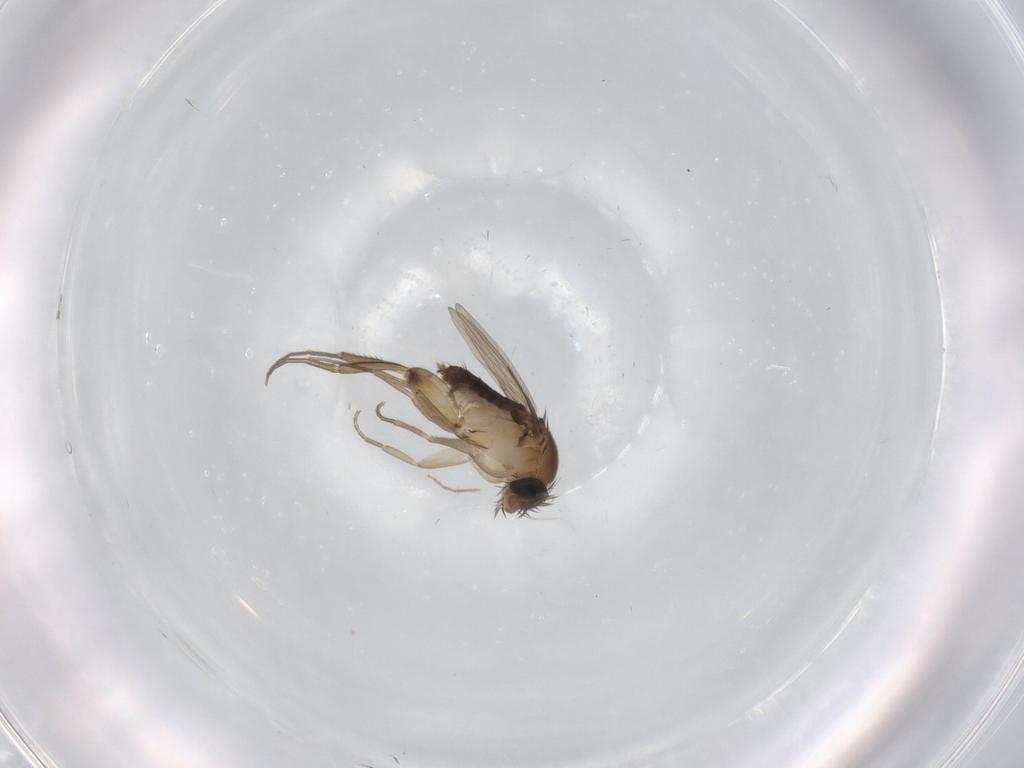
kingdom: Animalia
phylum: Arthropoda
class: Insecta
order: Diptera
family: Phoridae
